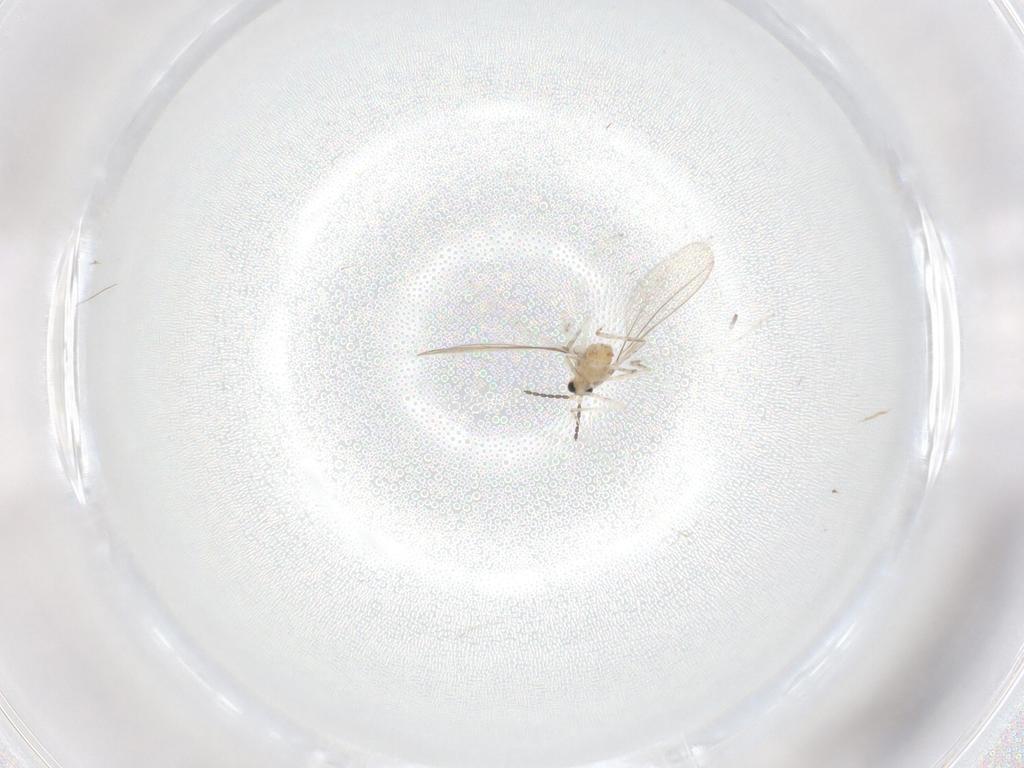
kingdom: Animalia
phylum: Arthropoda
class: Insecta
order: Diptera
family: Cecidomyiidae
